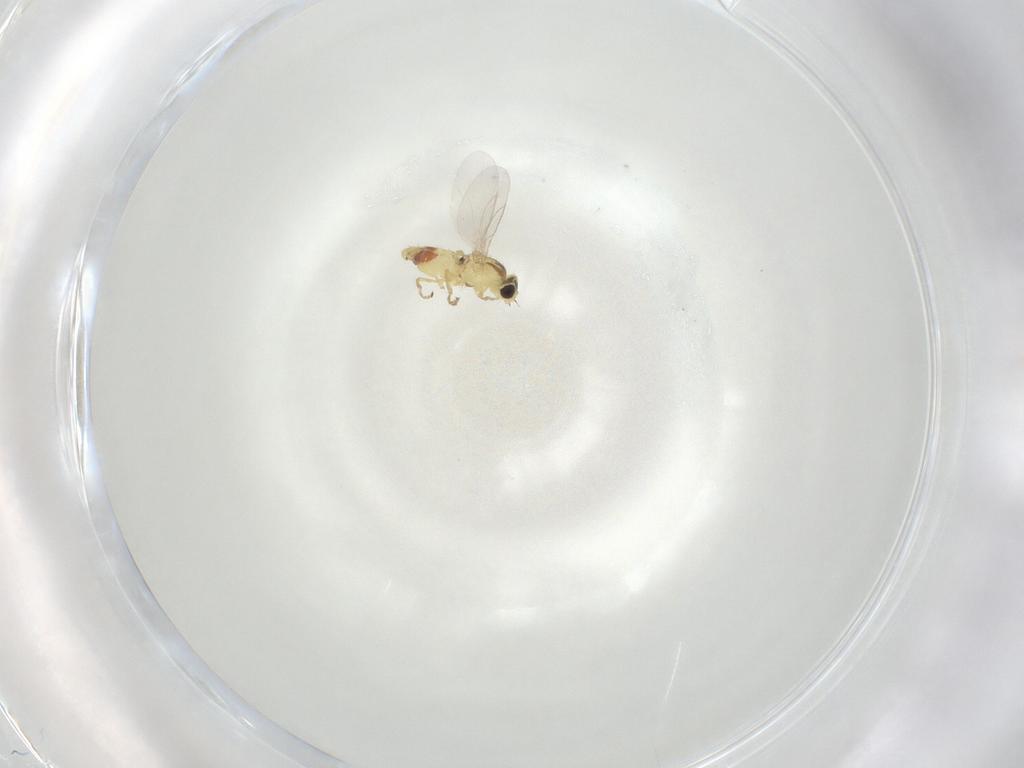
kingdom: Animalia
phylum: Arthropoda
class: Insecta
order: Diptera
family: Agromyzidae
